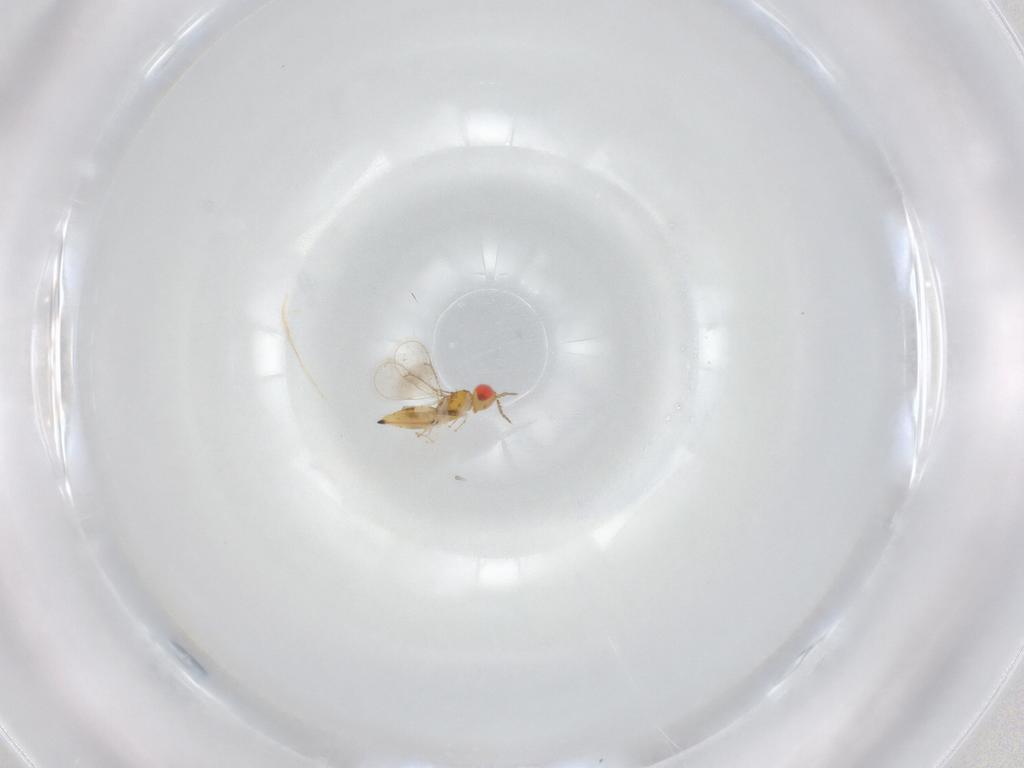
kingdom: Animalia
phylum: Arthropoda
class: Insecta
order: Hymenoptera
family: Eulophidae
